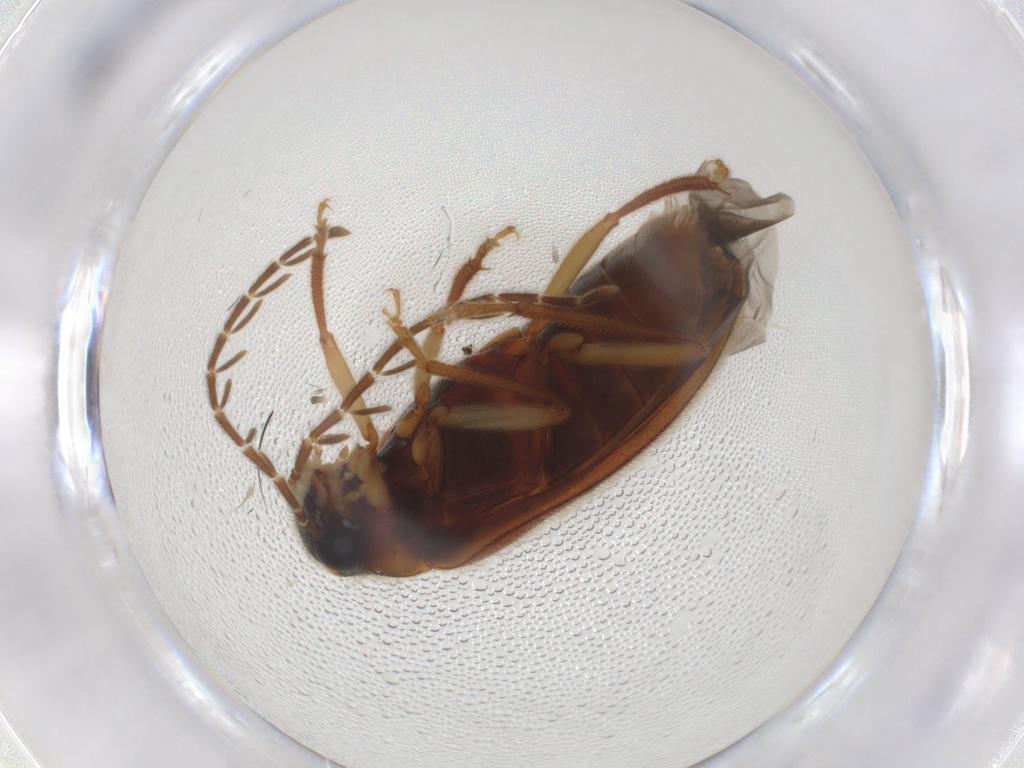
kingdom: Animalia
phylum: Arthropoda
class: Insecta
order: Coleoptera
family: Ptilodactylidae
